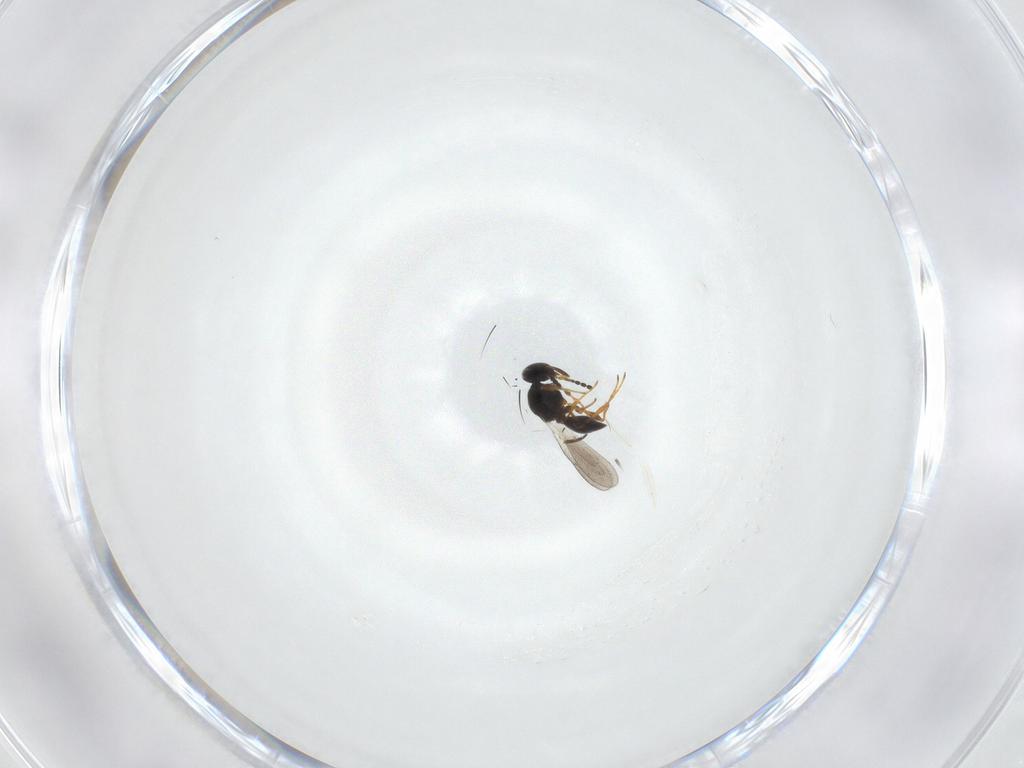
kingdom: Animalia
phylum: Arthropoda
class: Insecta
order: Hymenoptera
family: Platygastridae
